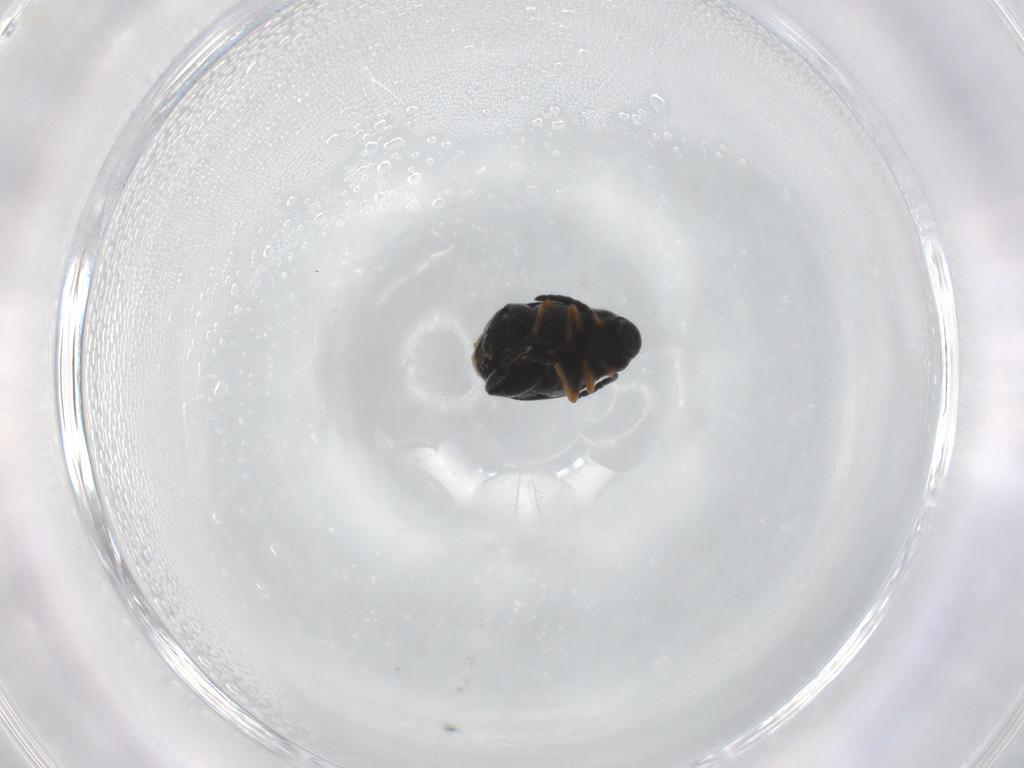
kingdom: Animalia
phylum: Arthropoda
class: Insecta
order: Coleoptera
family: Chrysomelidae
